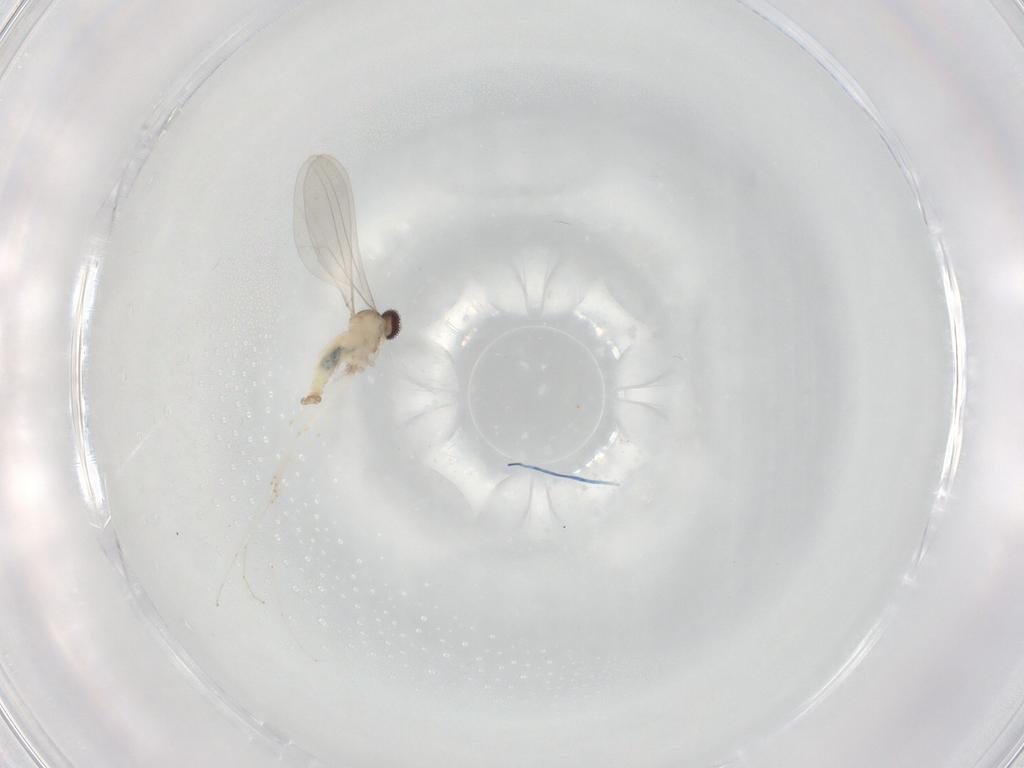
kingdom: Animalia
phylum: Arthropoda
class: Insecta
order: Diptera
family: Cecidomyiidae
